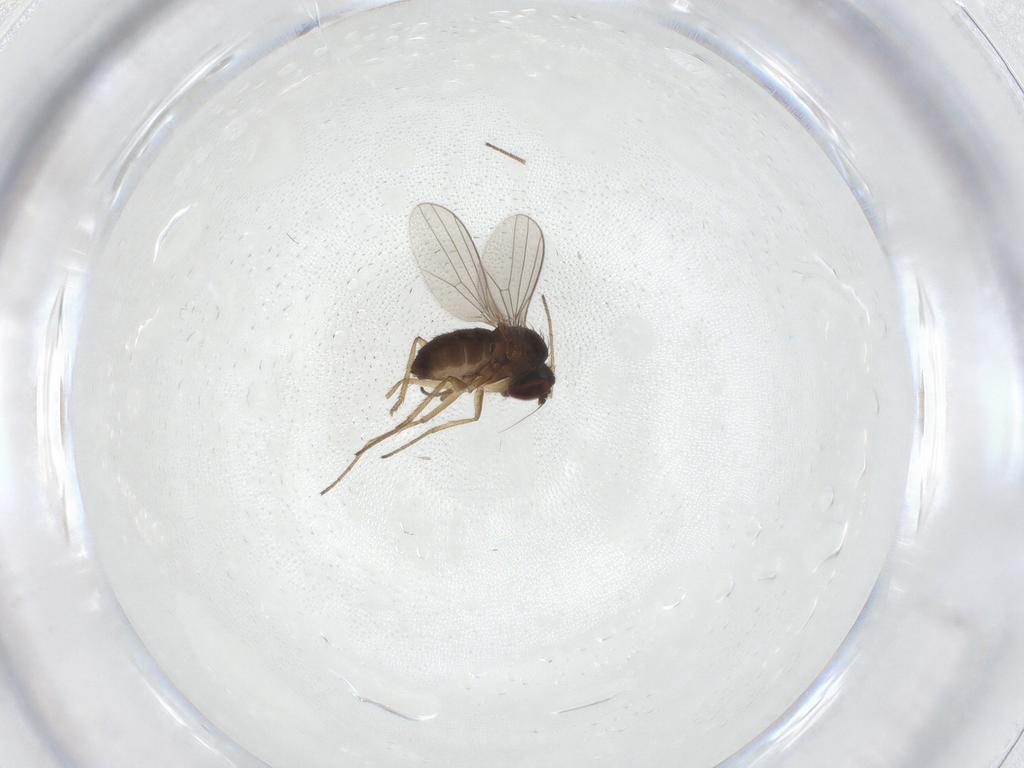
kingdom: Animalia
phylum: Arthropoda
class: Insecta
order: Diptera
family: Dolichopodidae
